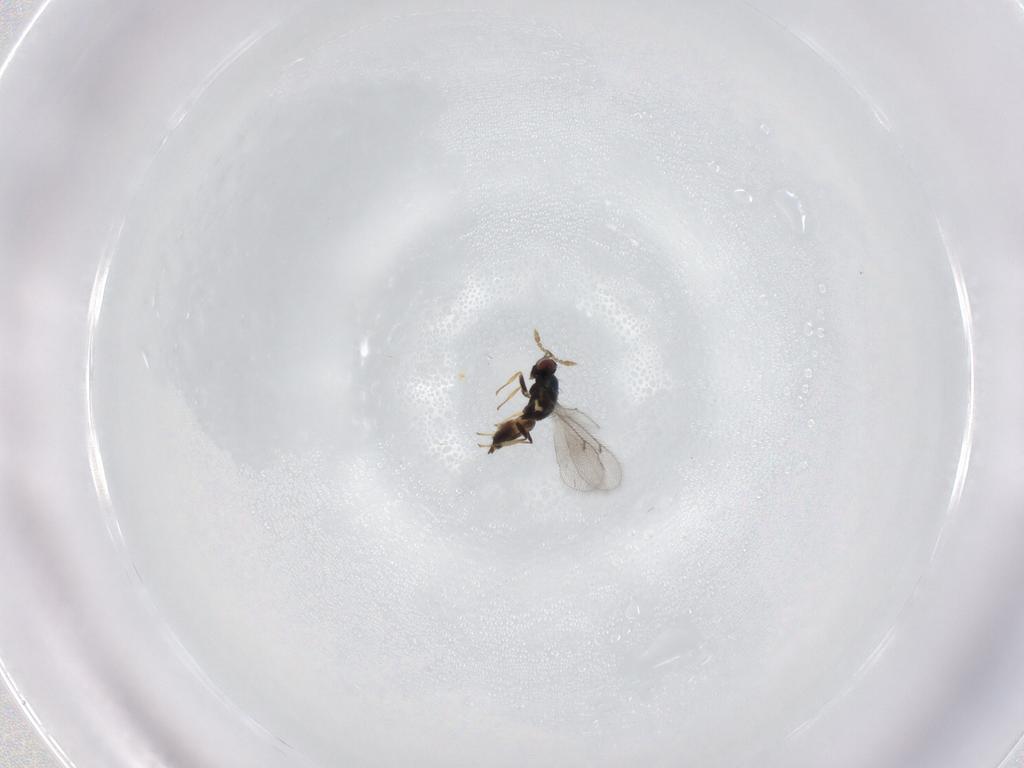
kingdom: Animalia
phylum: Arthropoda
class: Insecta
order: Hymenoptera
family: Eulophidae
